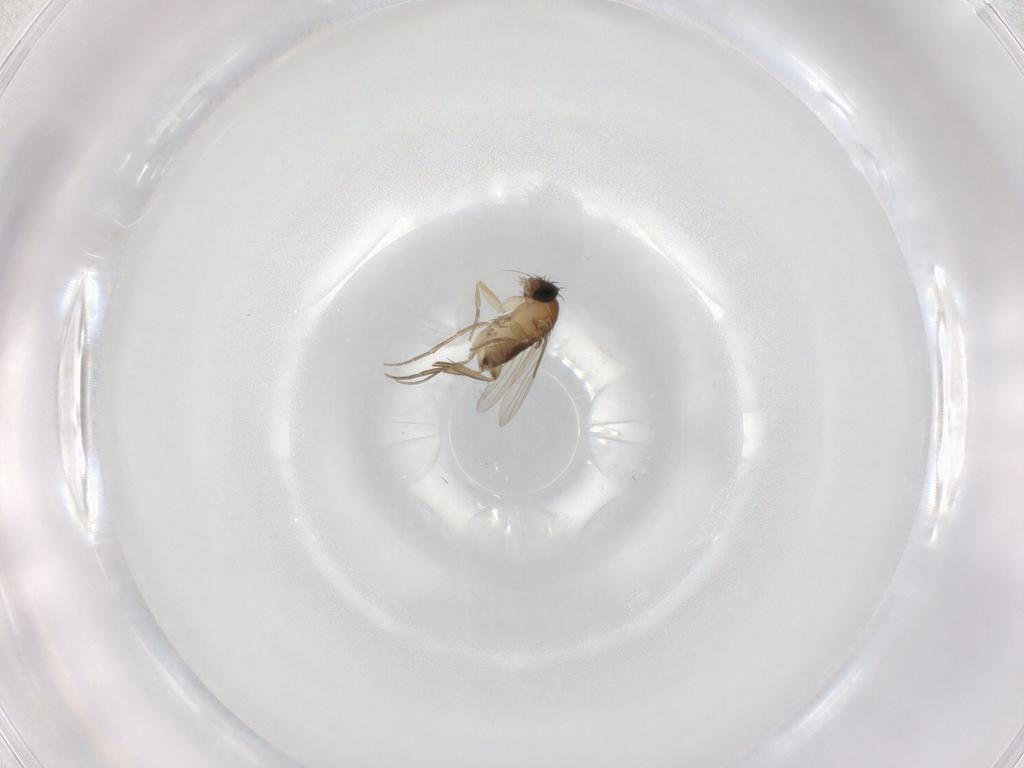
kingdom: Animalia
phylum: Arthropoda
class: Insecta
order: Diptera
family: Phoridae
